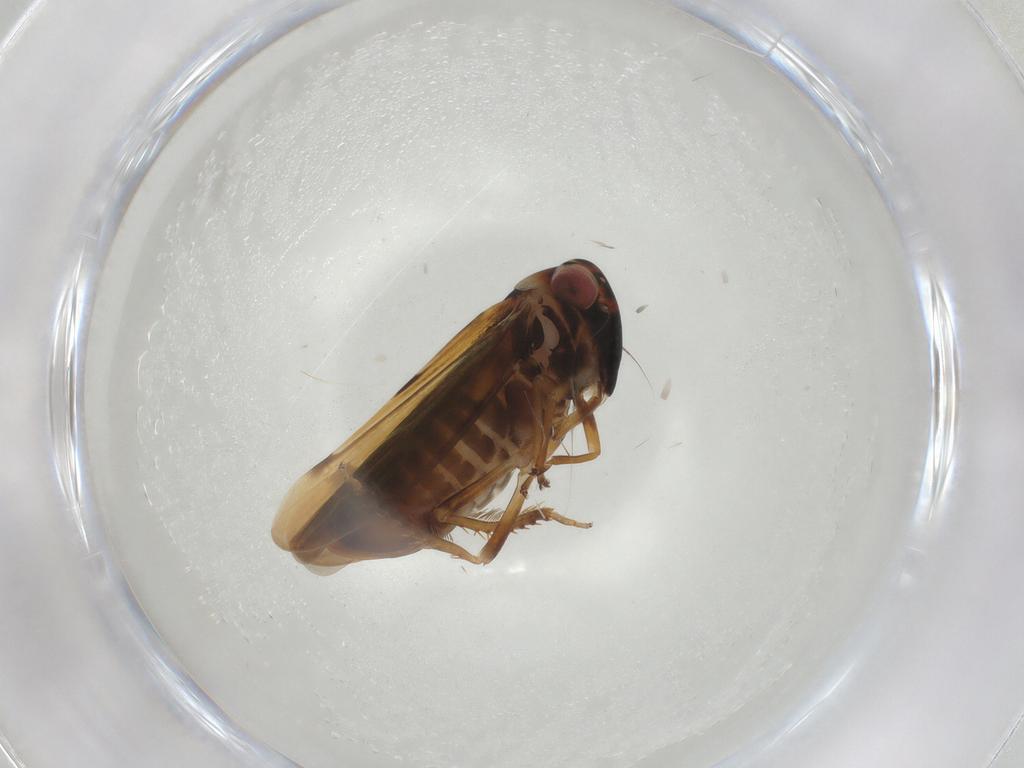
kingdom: Animalia
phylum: Arthropoda
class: Insecta
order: Hemiptera
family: Cicadellidae
